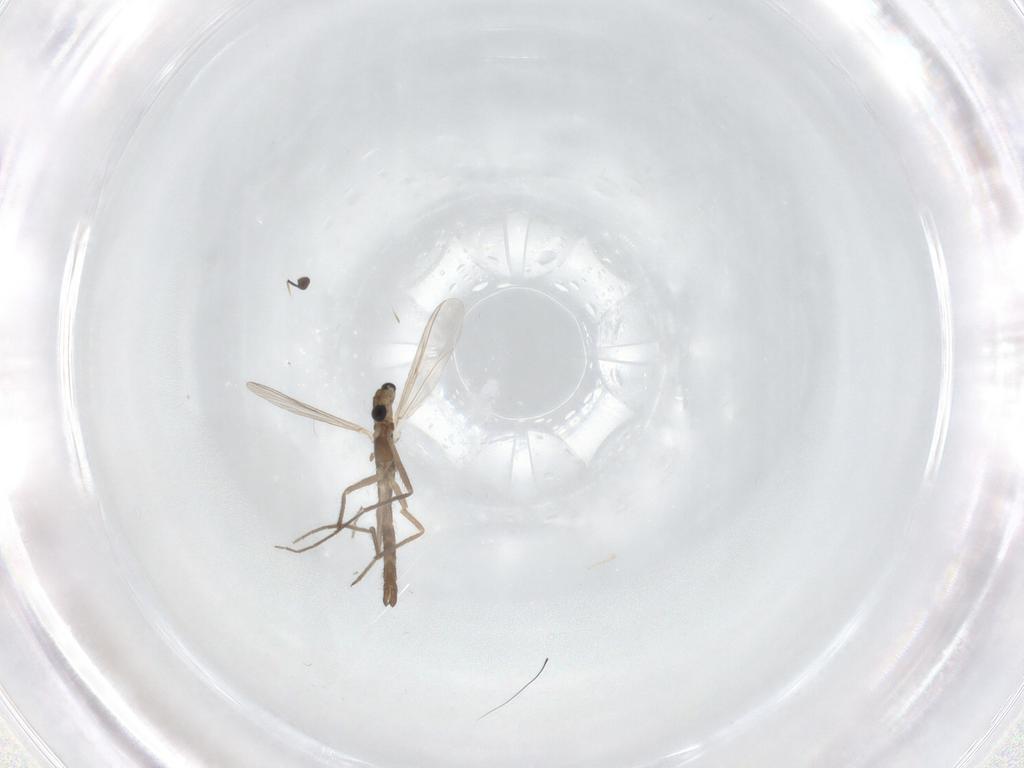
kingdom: Animalia
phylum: Arthropoda
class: Insecta
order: Diptera
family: Chironomidae
